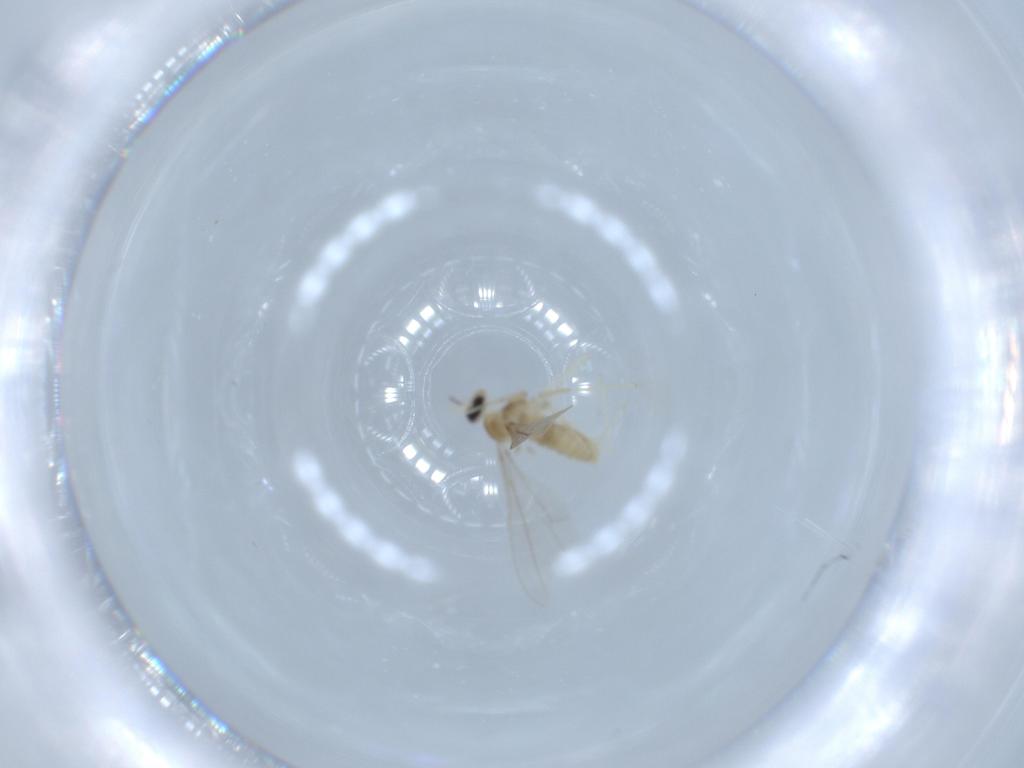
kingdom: Animalia
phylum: Arthropoda
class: Insecta
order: Diptera
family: Cecidomyiidae
